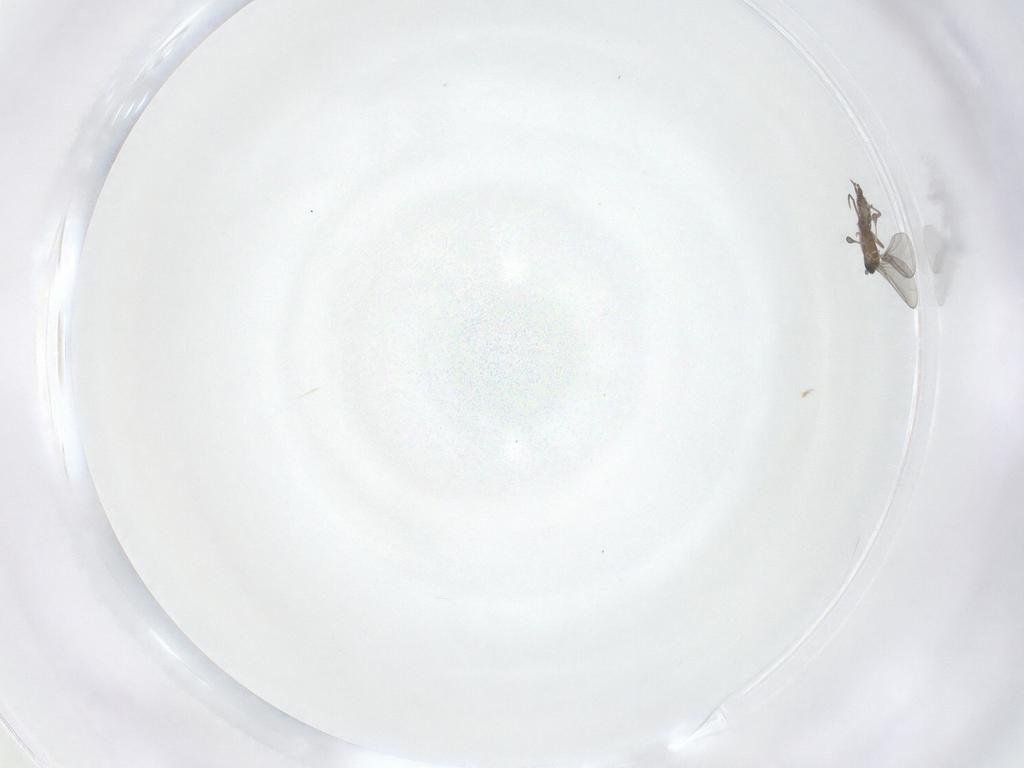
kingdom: Animalia
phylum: Arthropoda
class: Insecta
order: Diptera
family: Sciaridae
